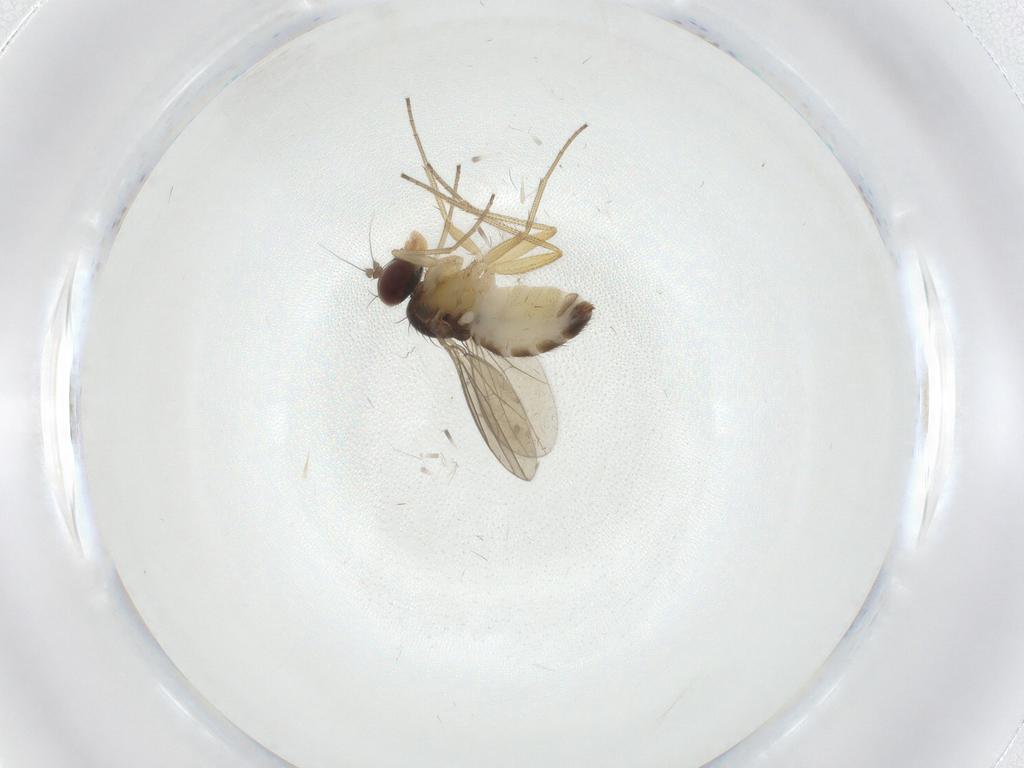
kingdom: Animalia
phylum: Arthropoda
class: Insecta
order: Diptera
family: Dolichopodidae
